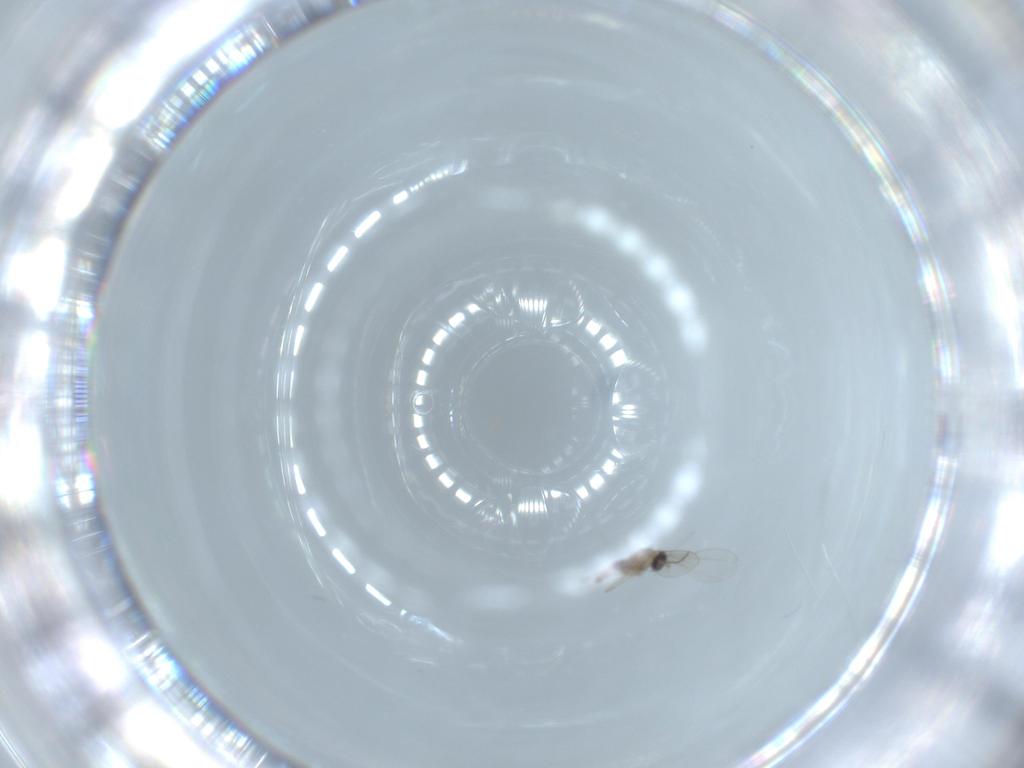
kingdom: Animalia
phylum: Arthropoda
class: Insecta
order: Diptera
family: Cecidomyiidae
